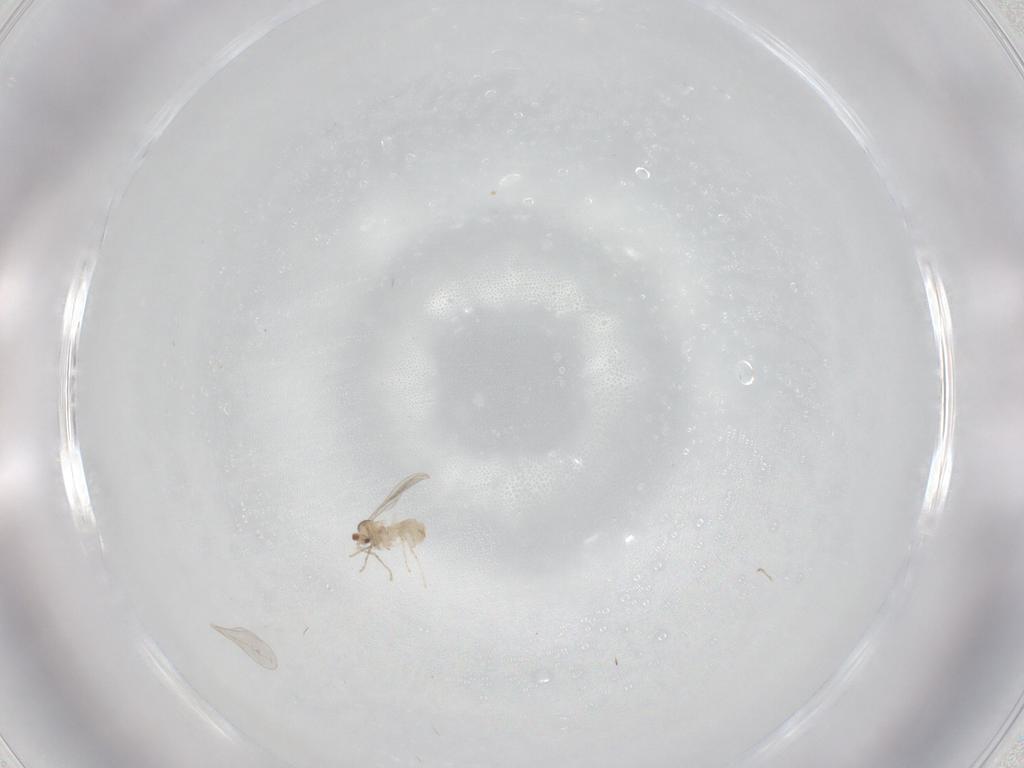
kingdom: Animalia
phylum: Arthropoda
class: Insecta
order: Diptera
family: Cecidomyiidae
